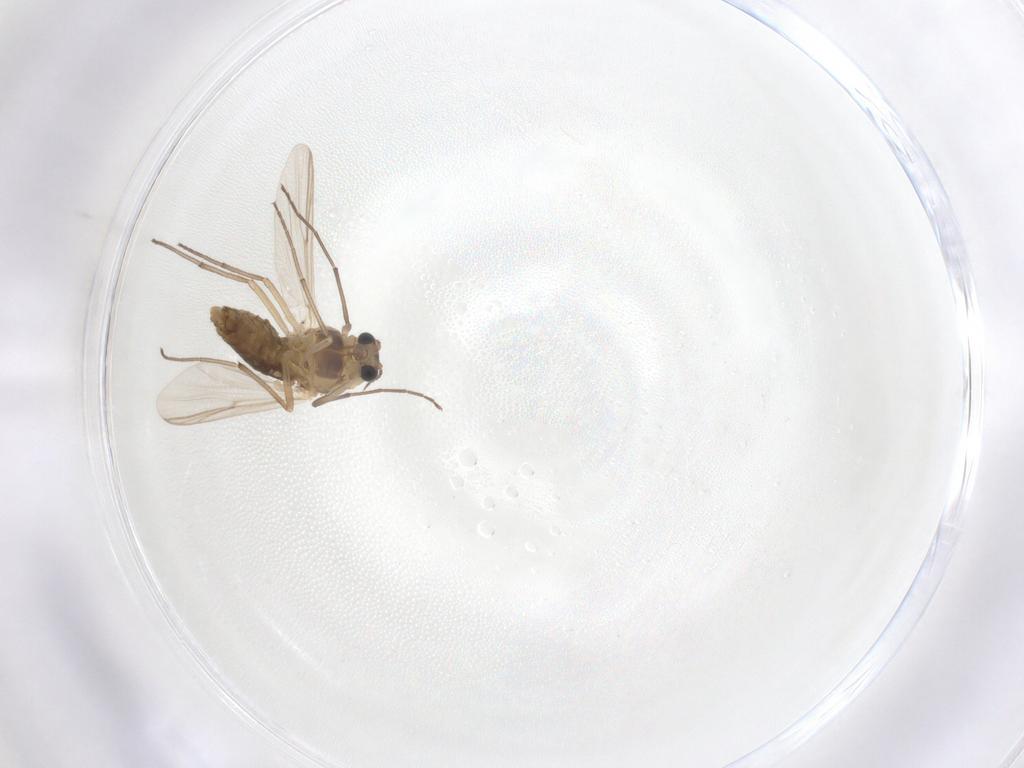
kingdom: Animalia
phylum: Arthropoda
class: Insecta
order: Diptera
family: Chironomidae
